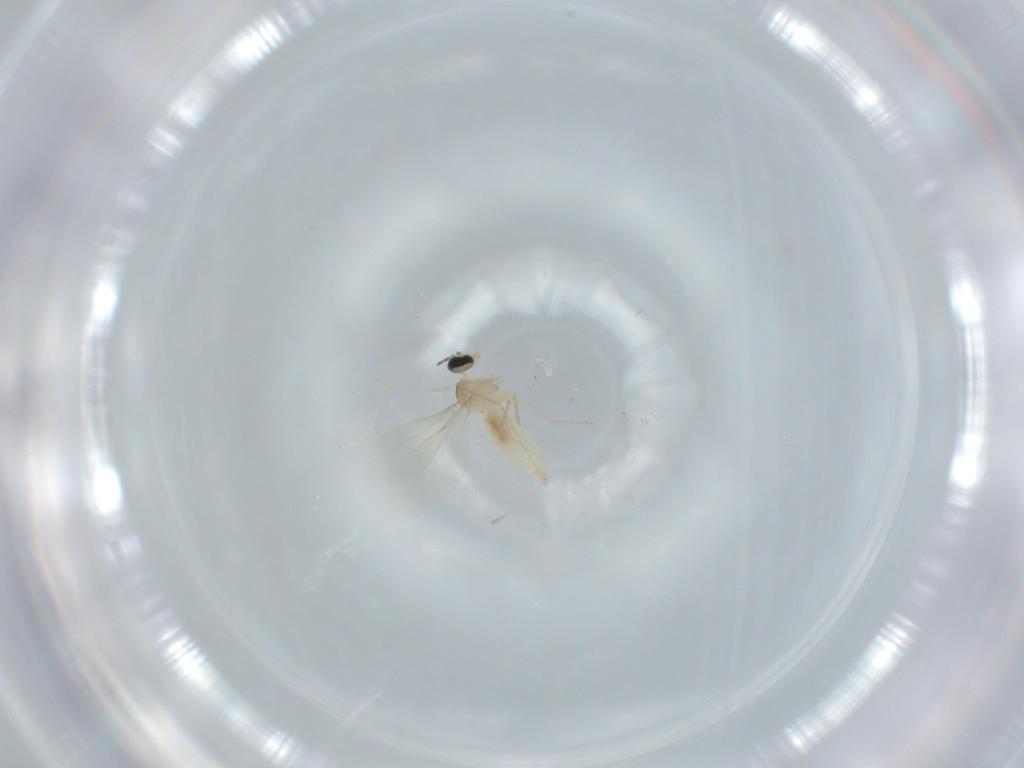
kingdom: Animalia
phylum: Arthropoda
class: Insecta
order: Diptera
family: Cecidomyiidae
